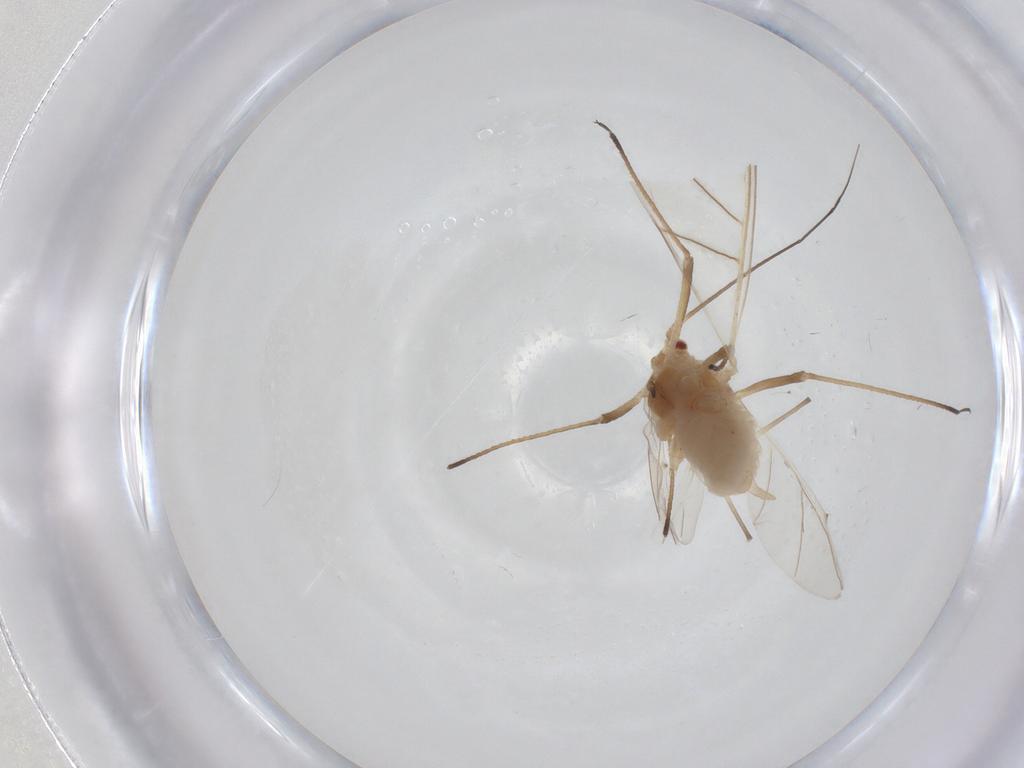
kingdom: Animalia
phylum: Arthropoda
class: Insecta
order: Hemiptera
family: Aphididae
